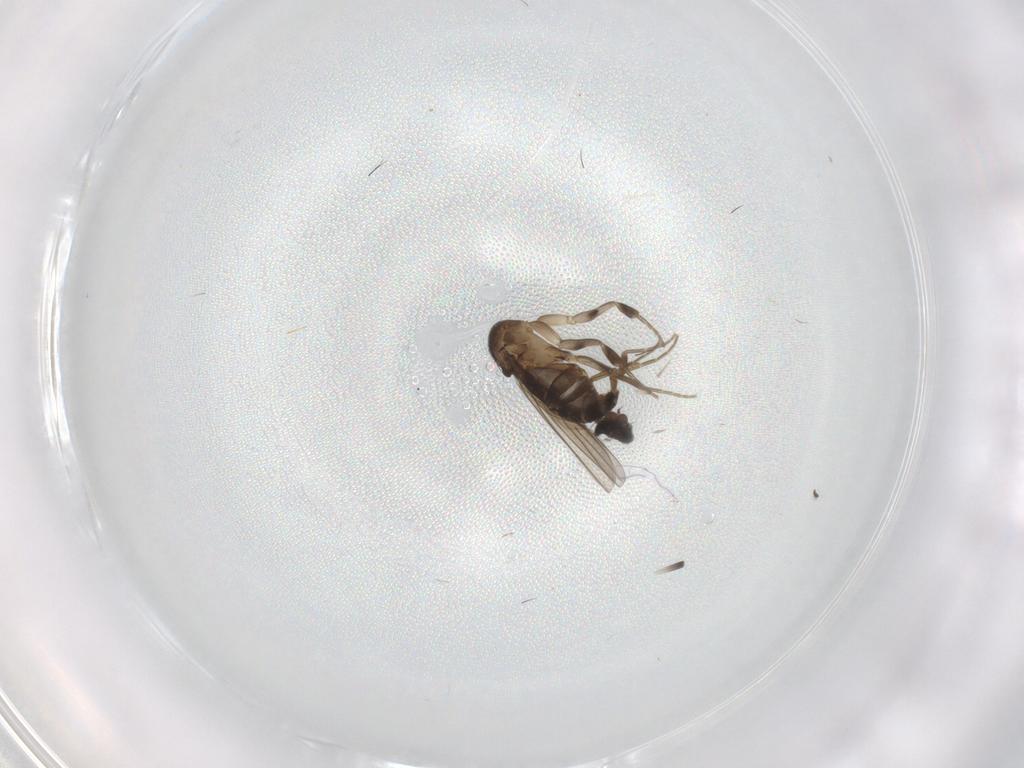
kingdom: Animalia
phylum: Arthropoda
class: Insecta
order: Diptera
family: Phoridae
